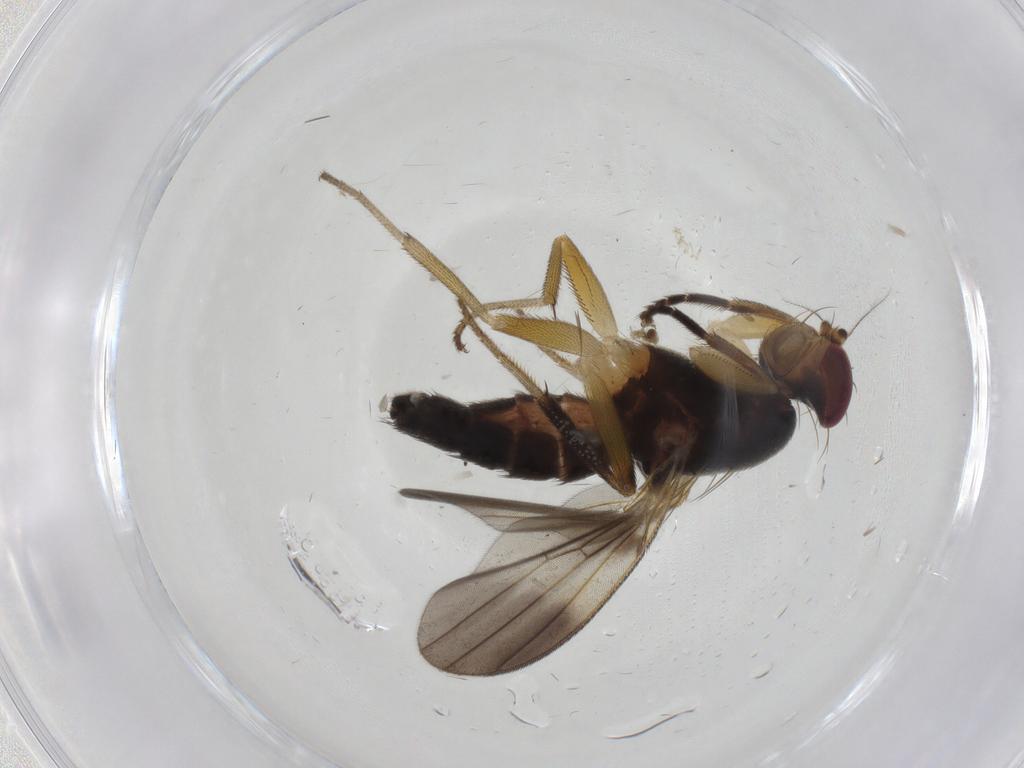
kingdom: Animalia
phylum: Arthropoda
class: Insecta
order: Diptera
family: Clusiidae
